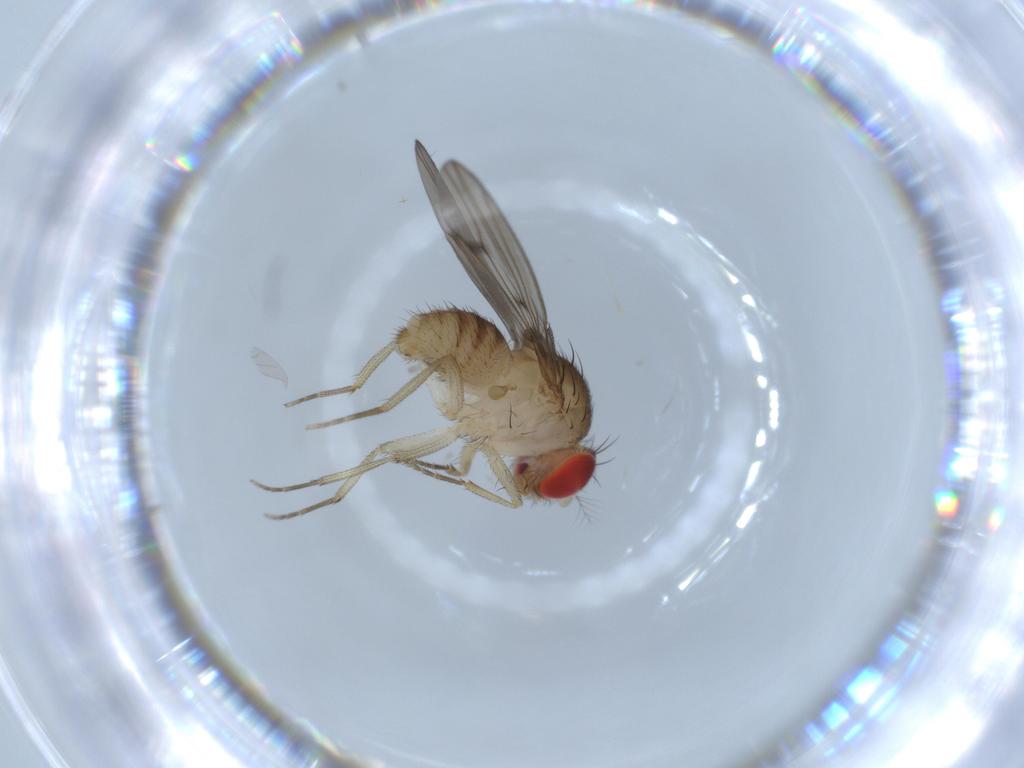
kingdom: Animalia
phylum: Arthropoda
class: Insecta
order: Diptera
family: Drosophilidae
